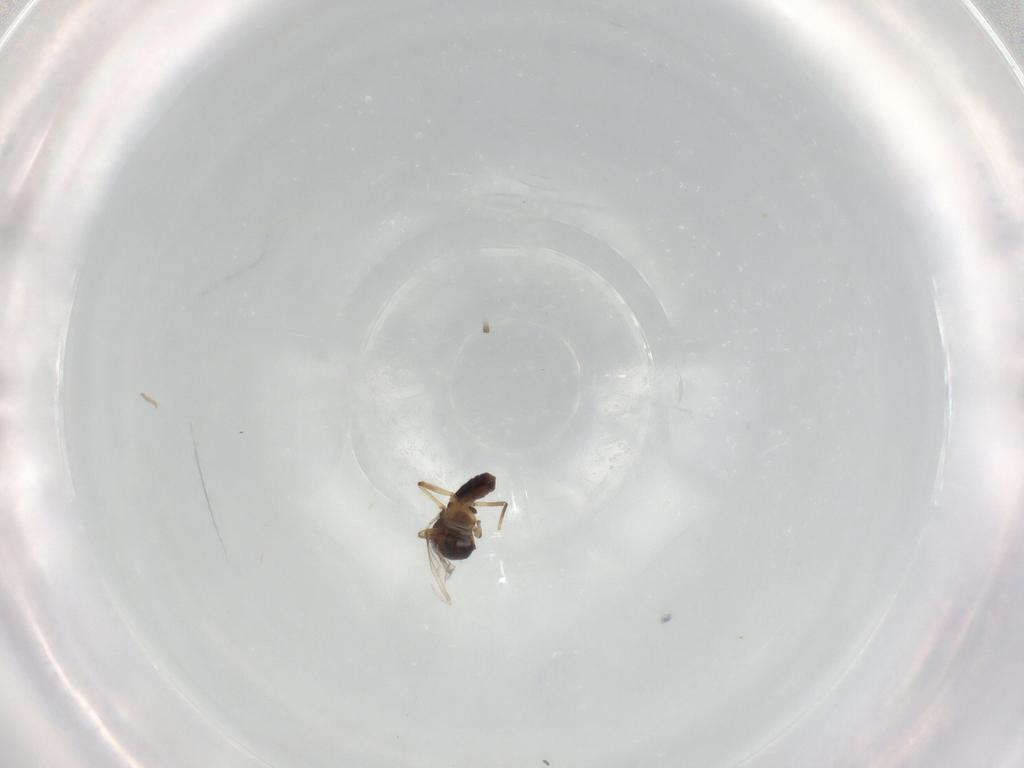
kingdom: Animalia
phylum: Arthropoda
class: Insecta
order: Diptera
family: Ceratopogonidae
